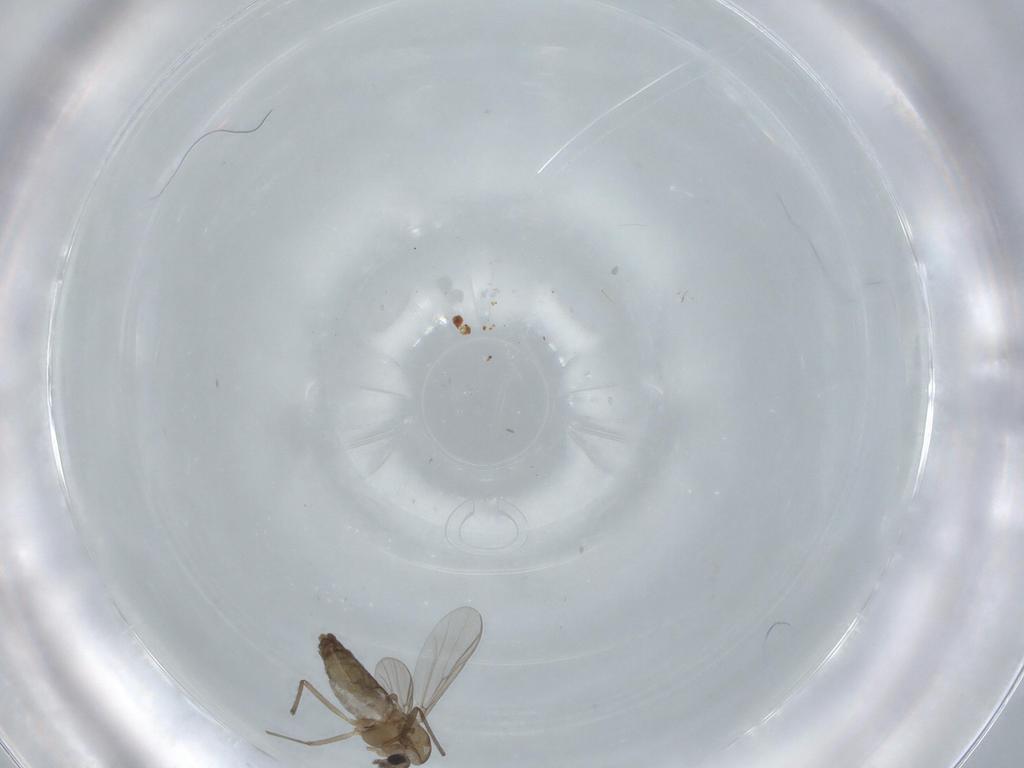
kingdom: Animalia
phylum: Arthropoda
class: Insecta
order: Diptera
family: Chironomidae
